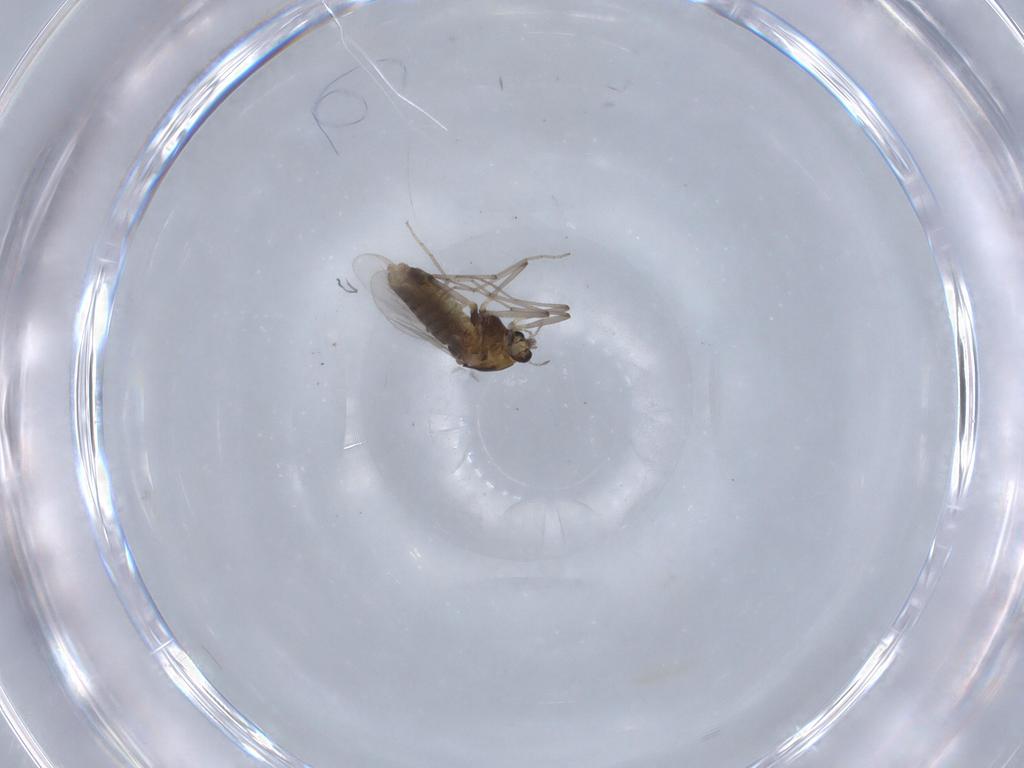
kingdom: Animalia
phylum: Arthropoda
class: Insecta
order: Diptera
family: Chironomidae
